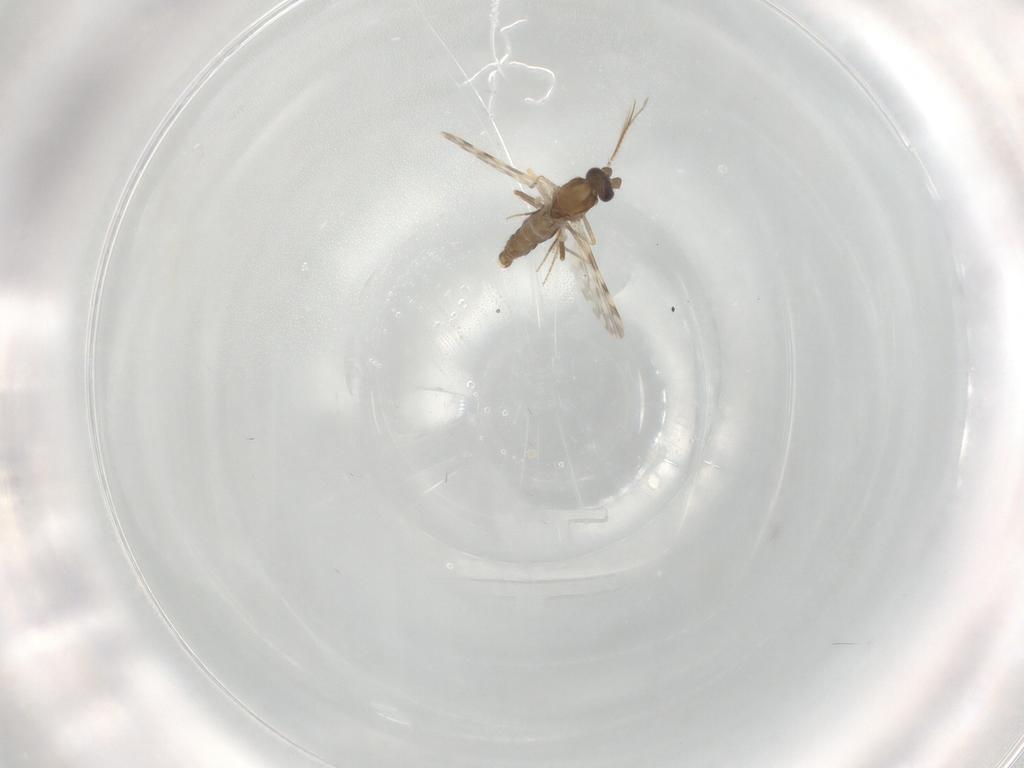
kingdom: Animalia
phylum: Arthropoda
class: Insecta
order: Diptera
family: Ceratopogonidae
